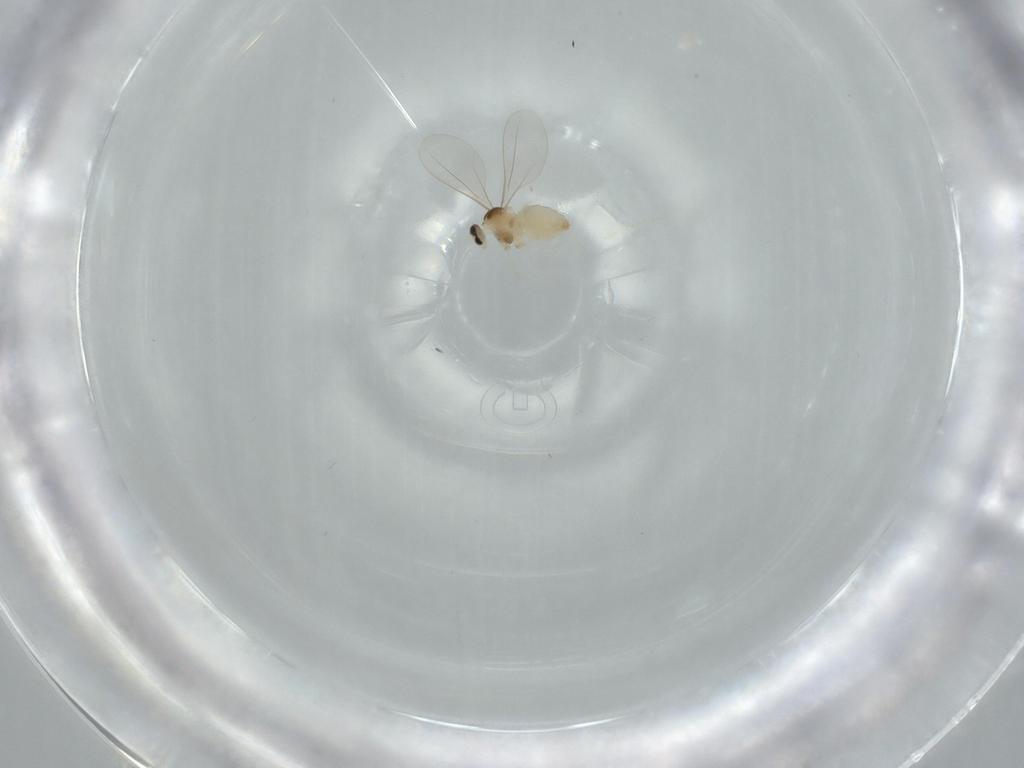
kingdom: Animalia
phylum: Arthropoda
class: Insecta
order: Diptera
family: Cecidomyiidae
